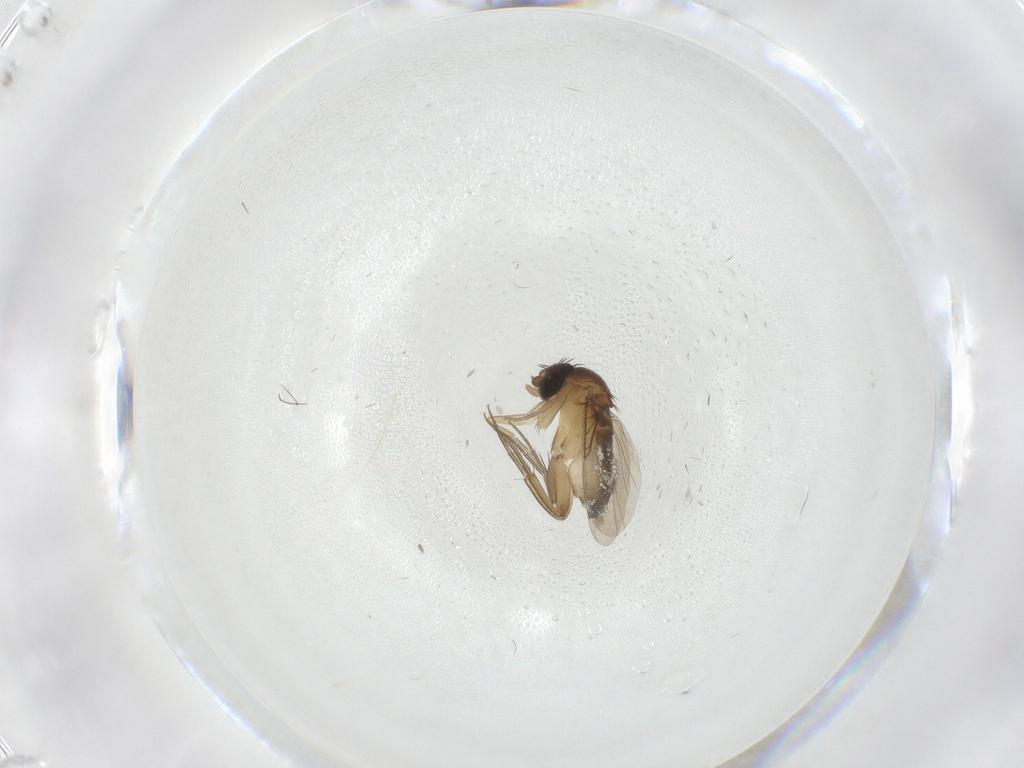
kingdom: Animalia
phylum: Arthropoda
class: Insecta
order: Diptera
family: Phoridae
